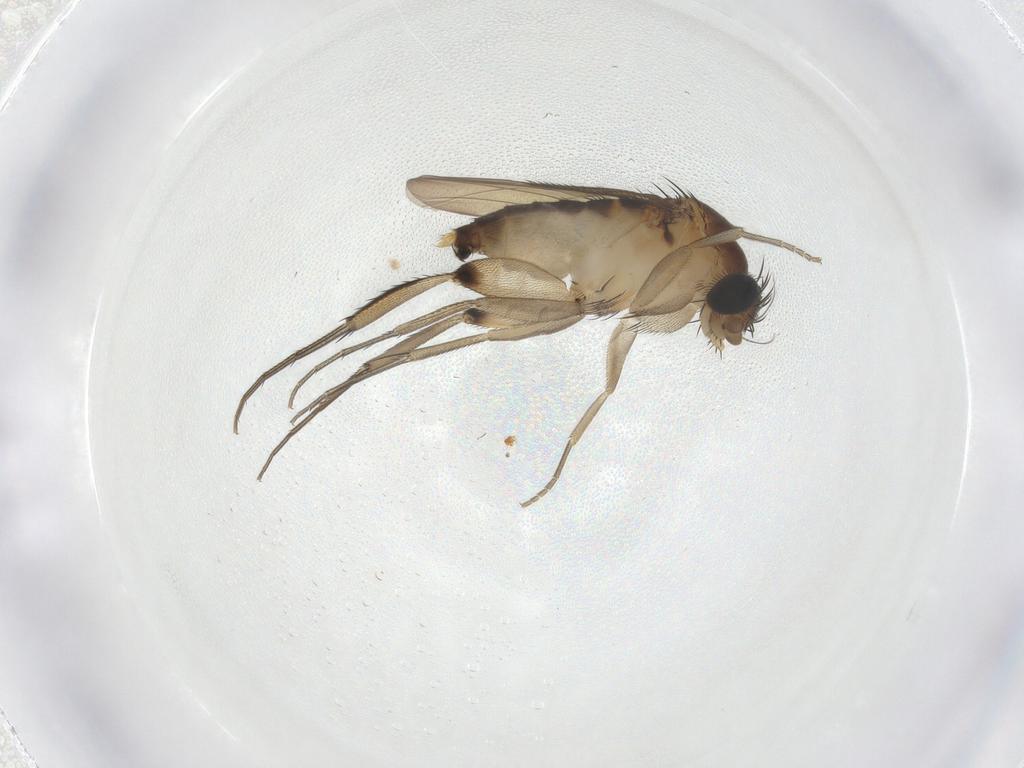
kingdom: Animalia
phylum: Arthropoda
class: Insecta
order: Diptera
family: Phoridae
